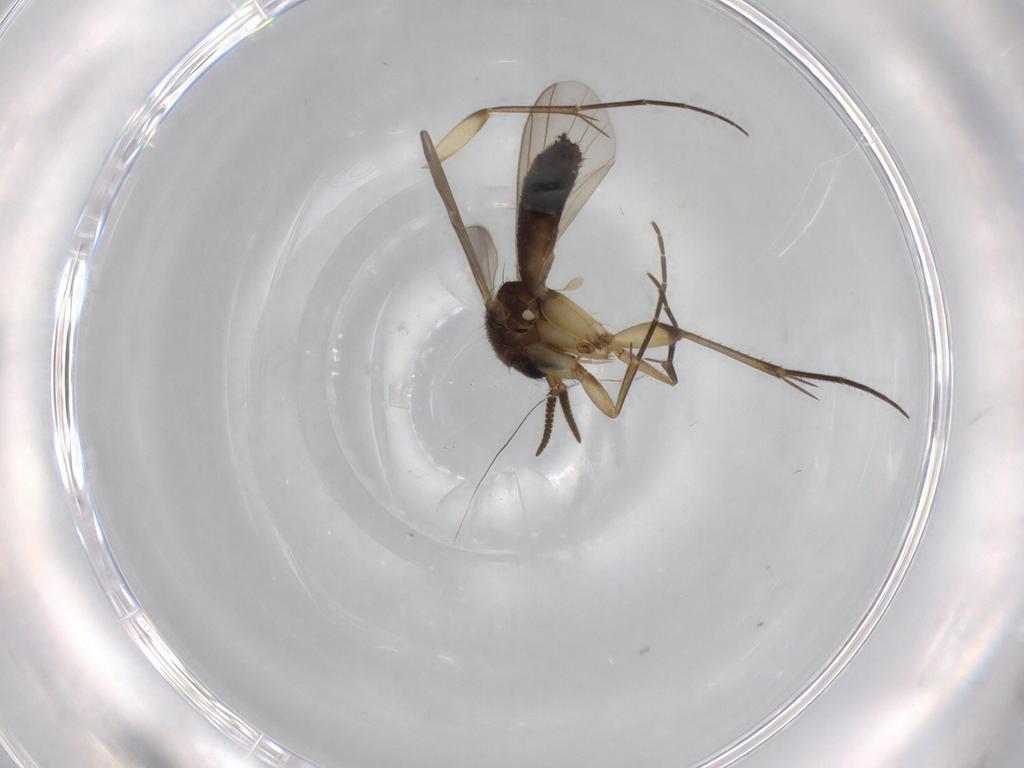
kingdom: Animalia
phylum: Arthropoda
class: Insecta
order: Diptera
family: Mycetophilidae
